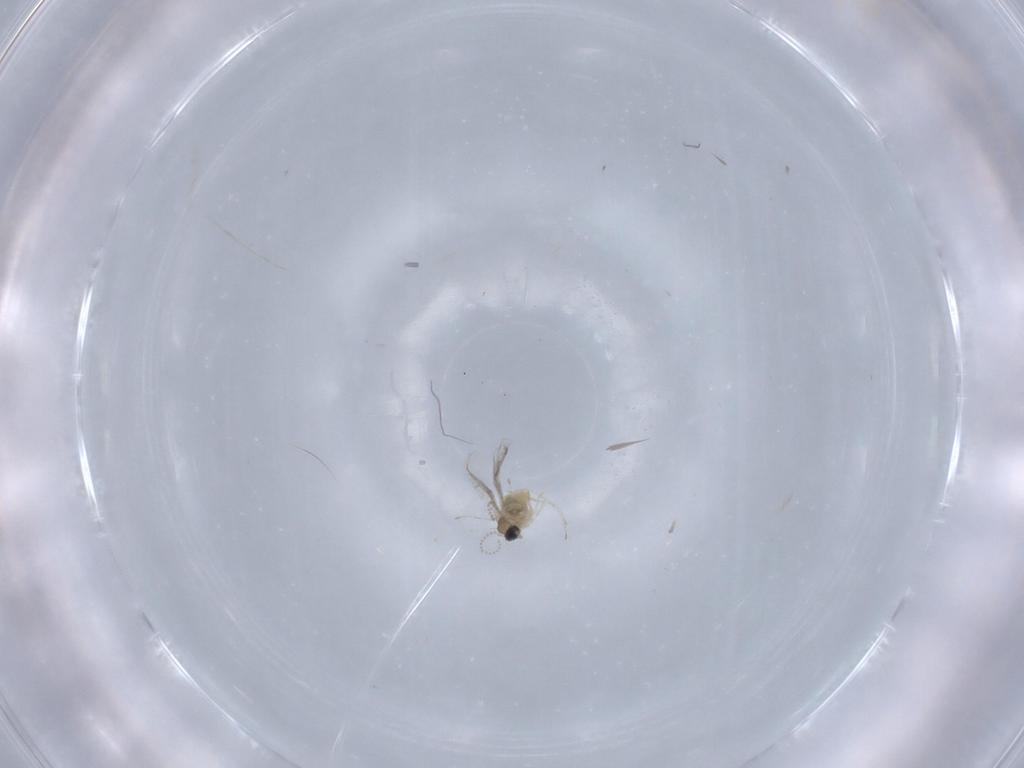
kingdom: Animalia
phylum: Arthropoda
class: Insecta
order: Diptera
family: Cecidomyiidae
